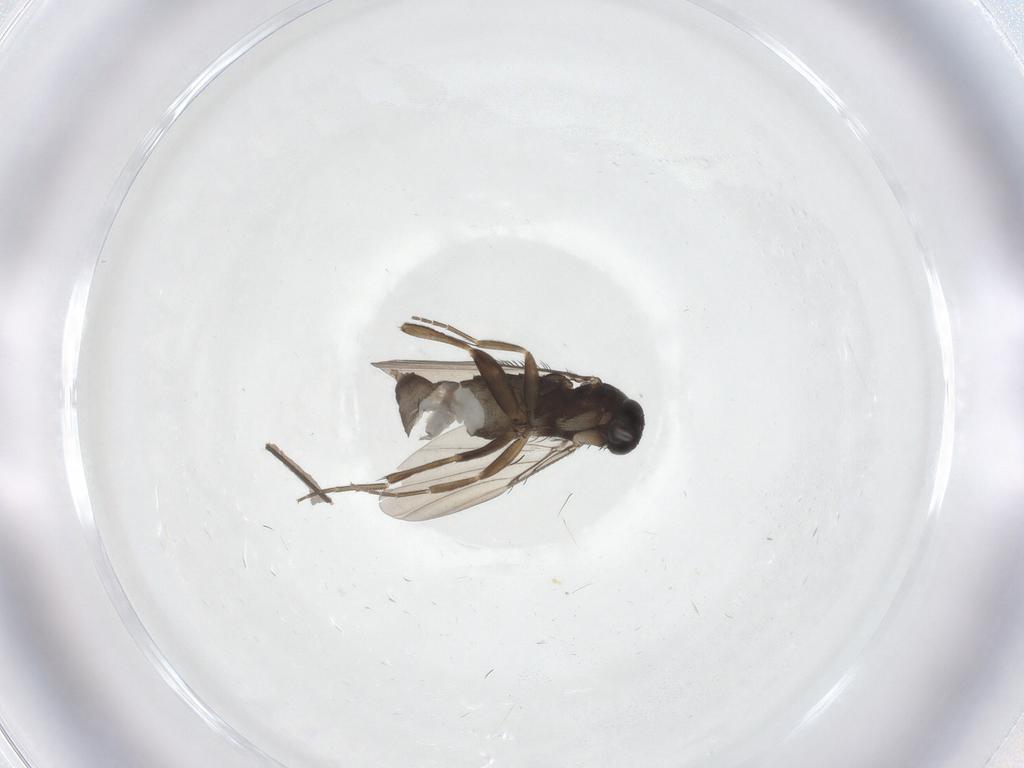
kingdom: Animalia
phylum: Arthropoda
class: Insecta
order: Diptera
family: Phoridae
